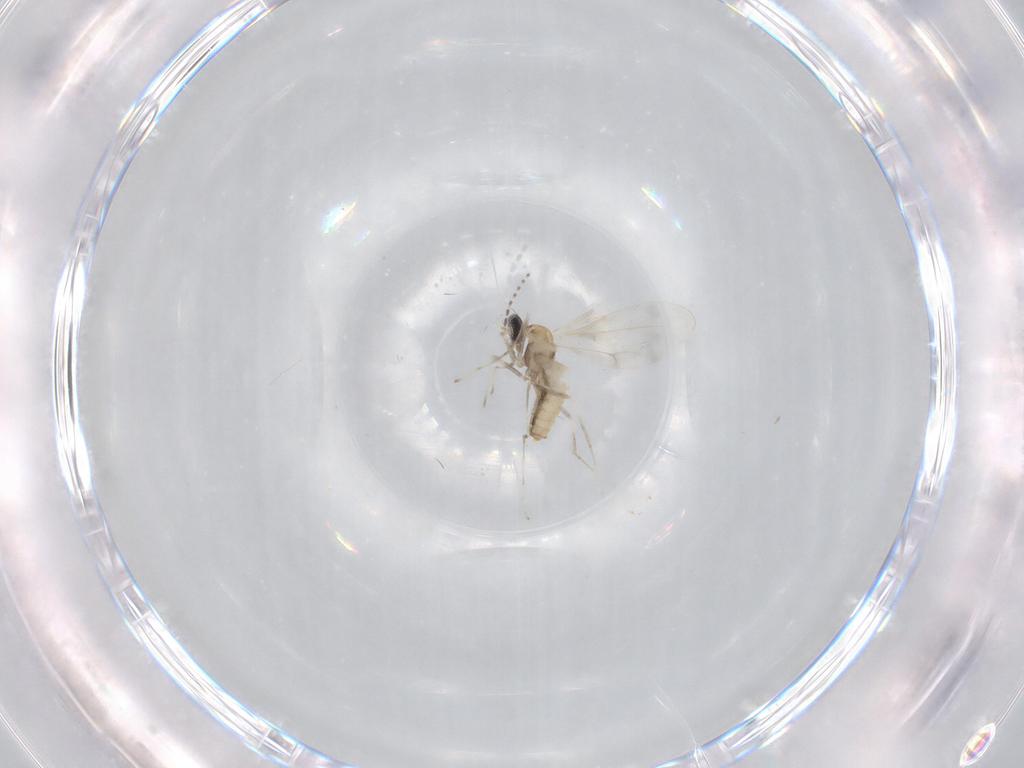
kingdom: Animalia
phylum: Arthropoda
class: Insecta
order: Diptera
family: Cecidomyiidae
